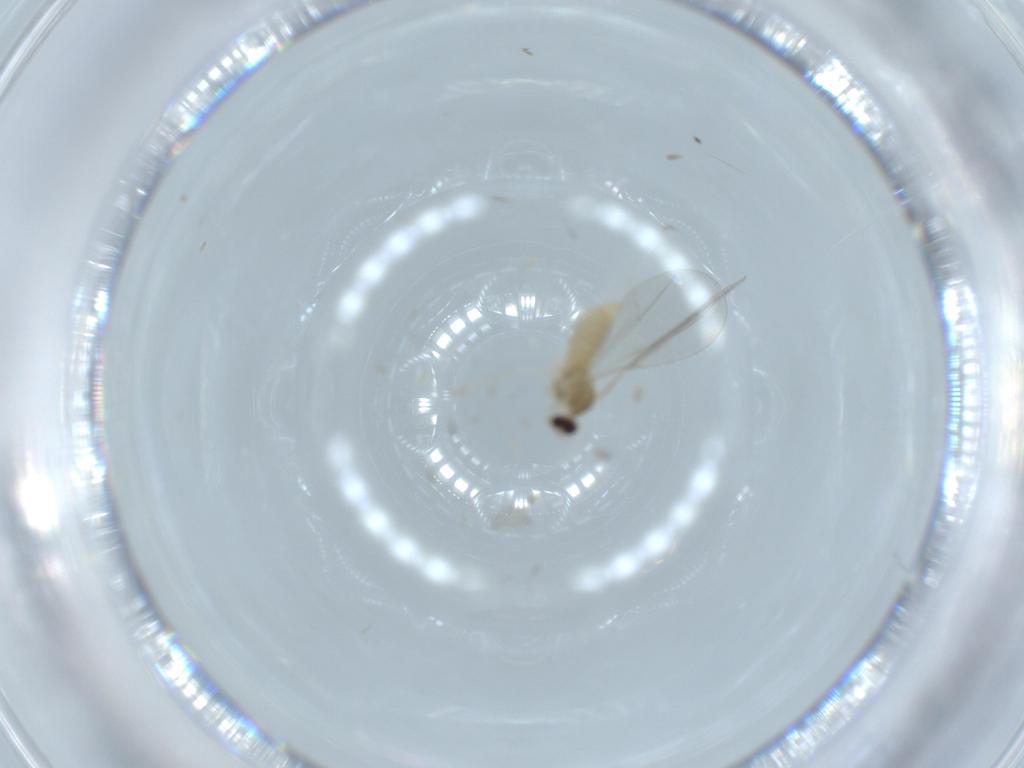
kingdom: Animalia
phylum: Arthropoda
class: Insecta
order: Diptera
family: Cecidomyiidae
